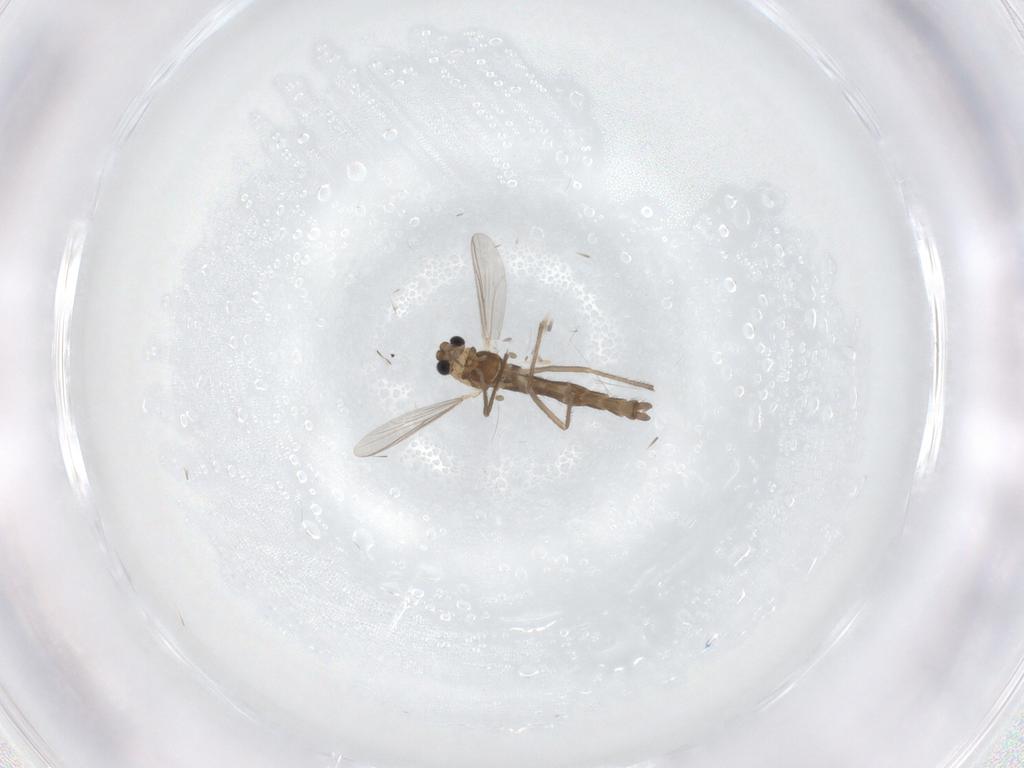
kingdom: Animalia
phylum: Arthropoda
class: Insecta
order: Diptera
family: Chironomidae
